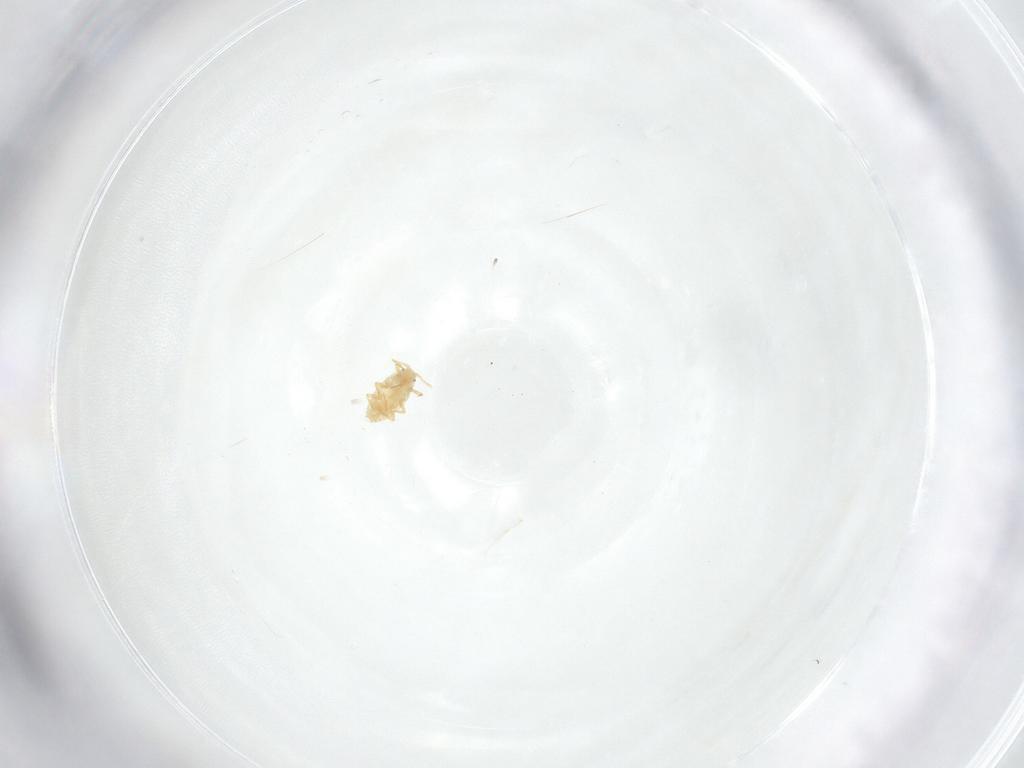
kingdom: Animalia
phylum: Arthropoda
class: Insecta
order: Hemiptera
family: Pseudococcidae
